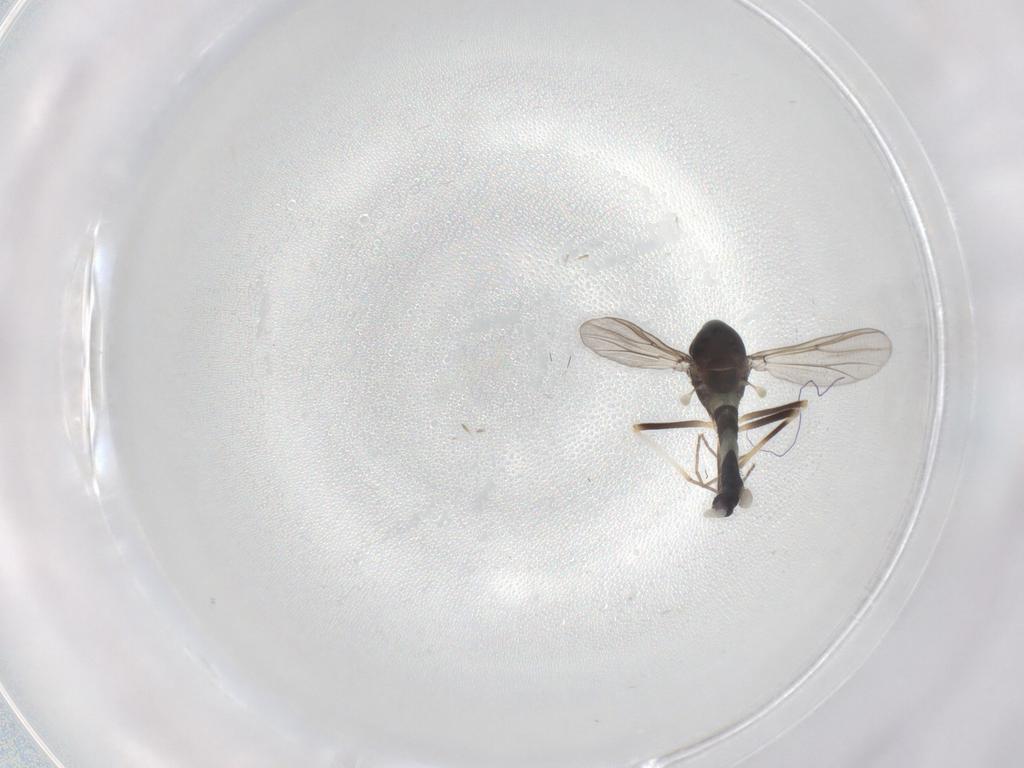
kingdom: Animalia
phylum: Arthropoda
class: Insecta
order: Diptera
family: Chironomidae
